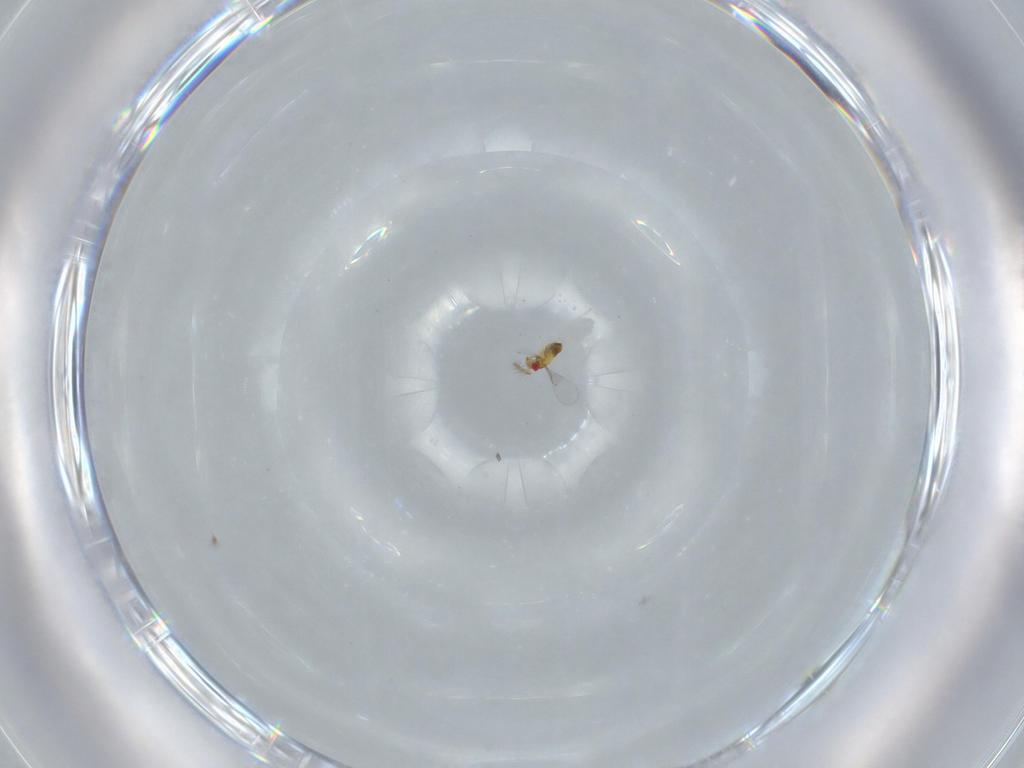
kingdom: Animalia
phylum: Arthropoda
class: Insecta
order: Hymenoptera
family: Trichogrammatidae
